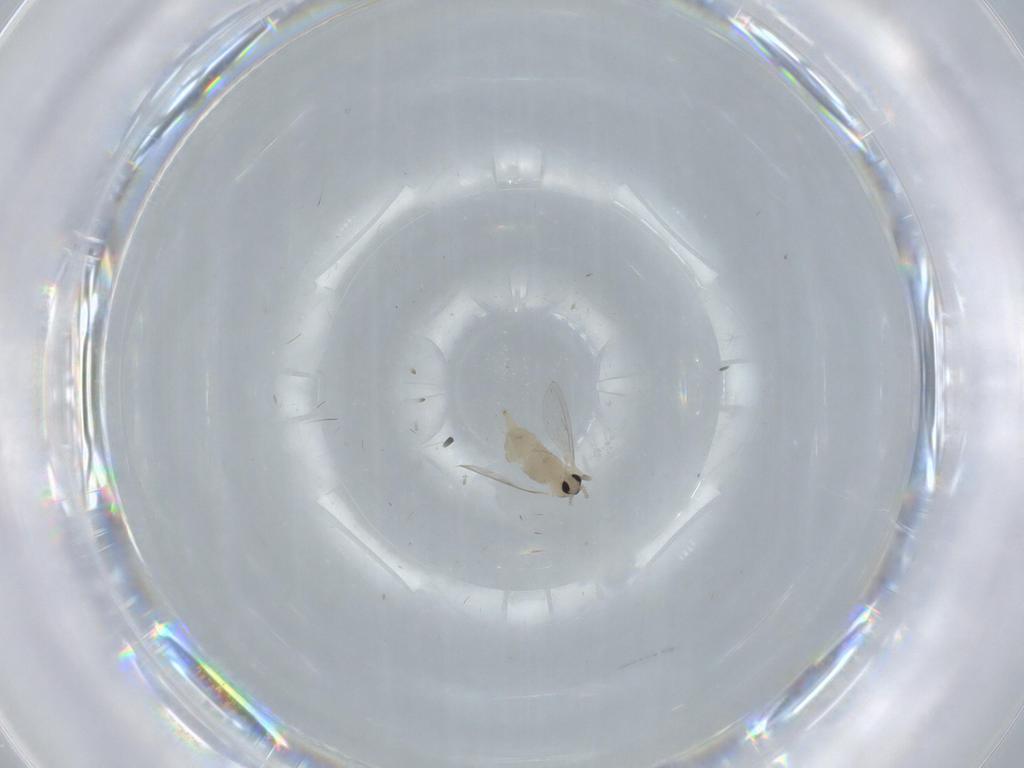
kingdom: Animalia
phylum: Arthropoda
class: Insecta
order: Diptera
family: Cecidomyiidae
